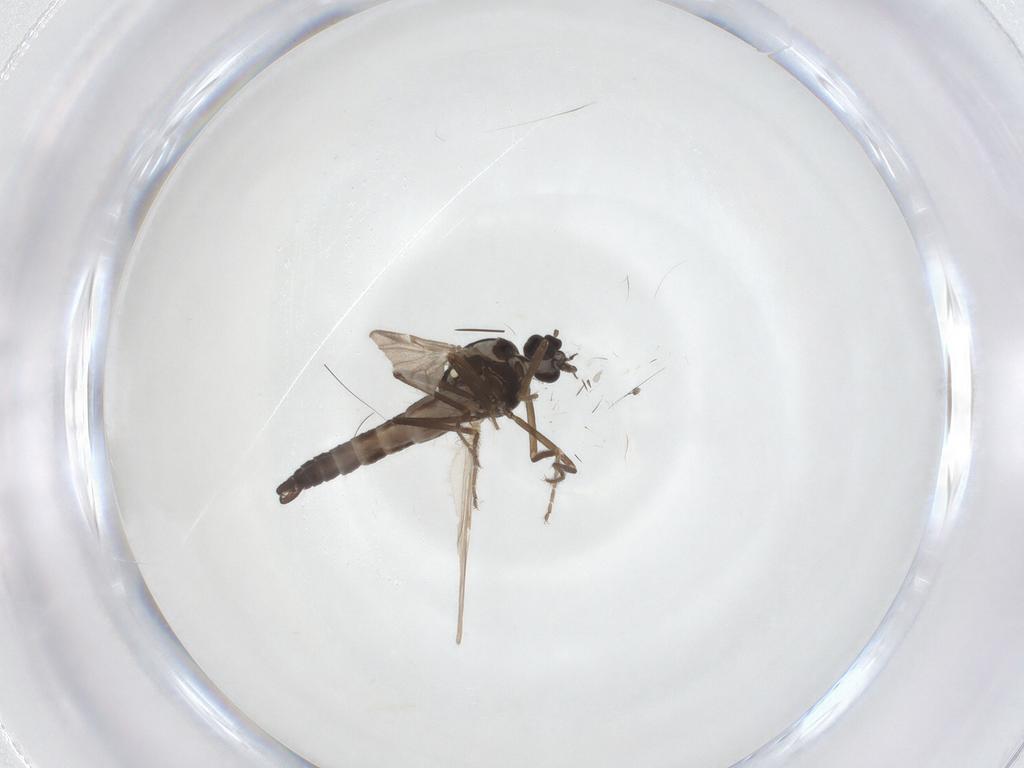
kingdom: Animalia
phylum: Arthropoda
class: Insecta
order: Diptera
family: Ceratopogonidae
